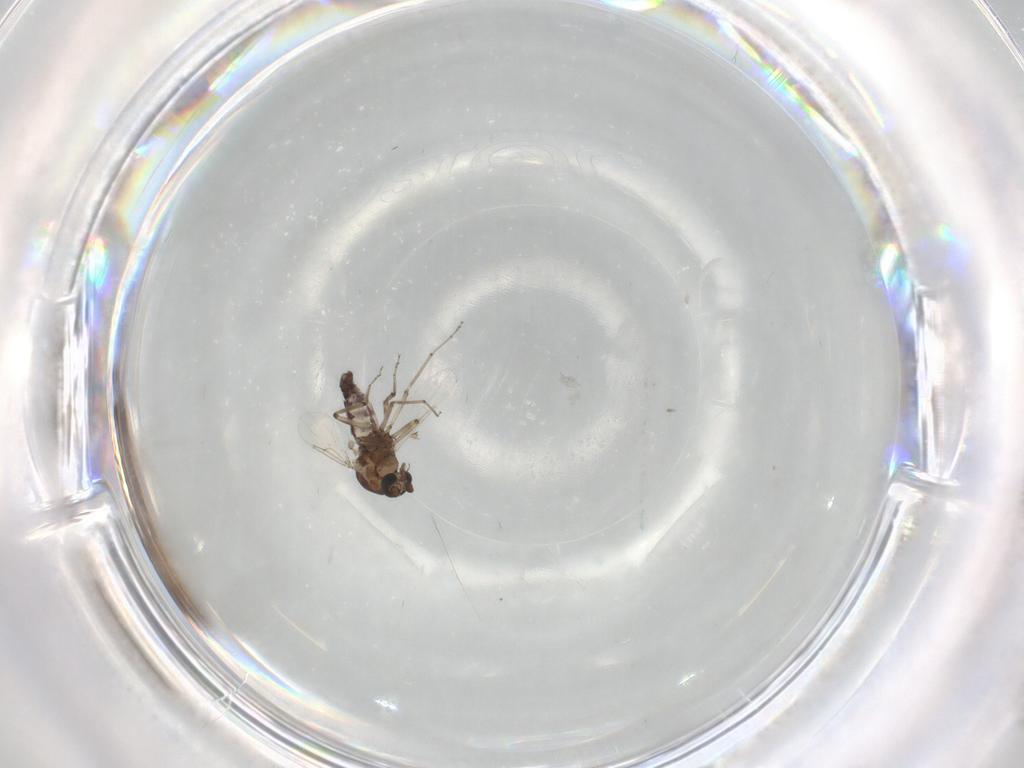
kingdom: Animalia
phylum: Arthropoda
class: Insecta
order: Diptera
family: Ceratopogonidae
